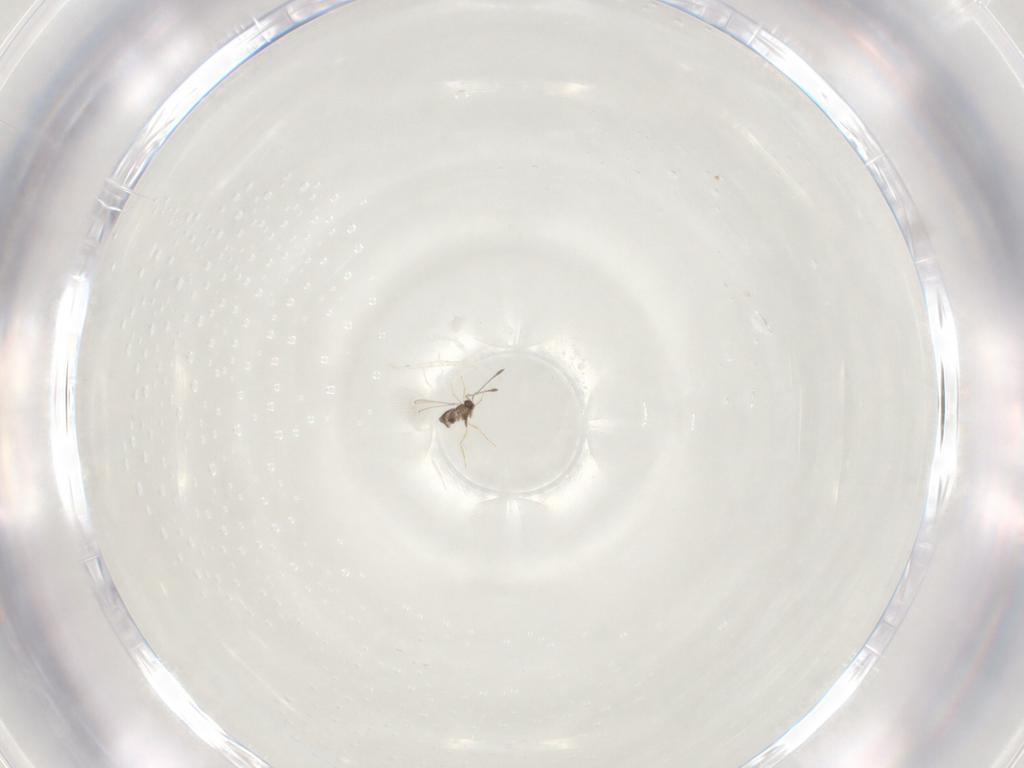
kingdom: Animalia
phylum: Arthropoda
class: Insecta
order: Hymenoptera
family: Mymaridae
